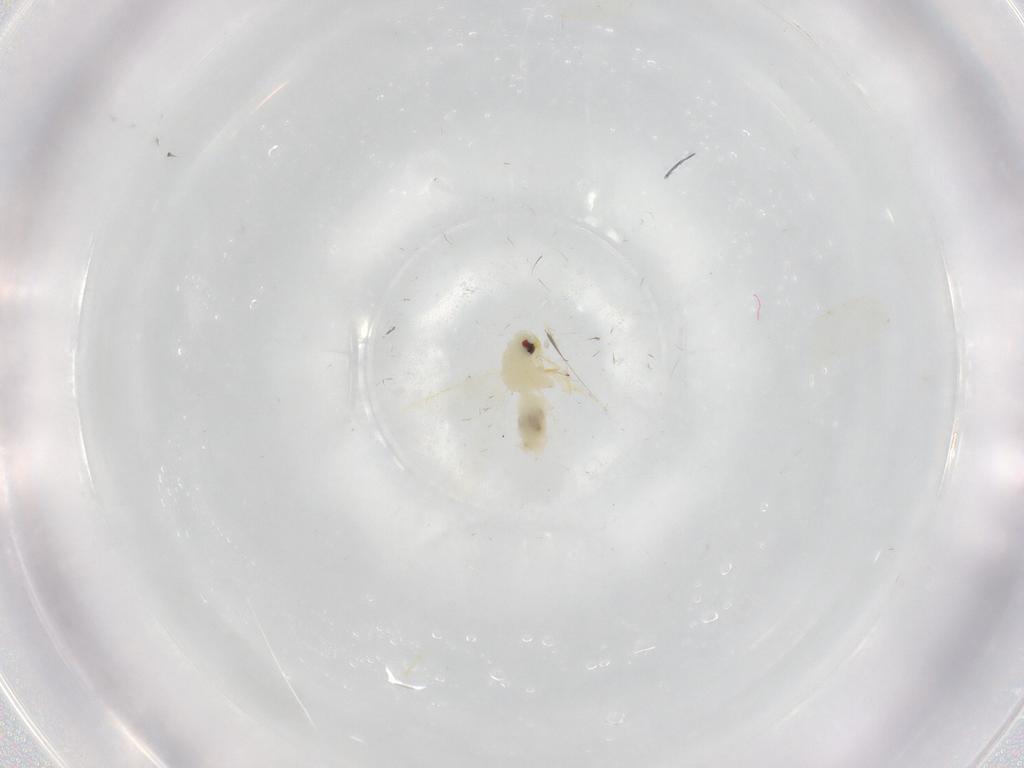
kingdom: Animalia
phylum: Arthropoda
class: Insecta
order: Hemiptera
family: Aleyrodidae
